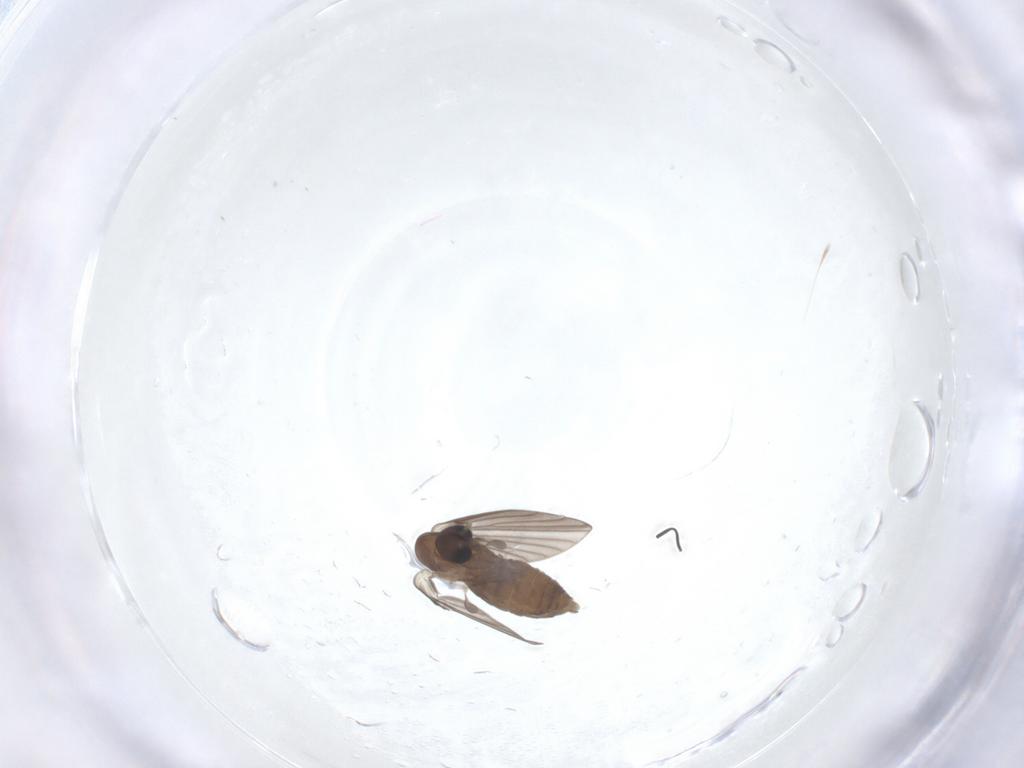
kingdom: Animalia
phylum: Arthropoda
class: Insecta
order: Diptera
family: Psychodidae
